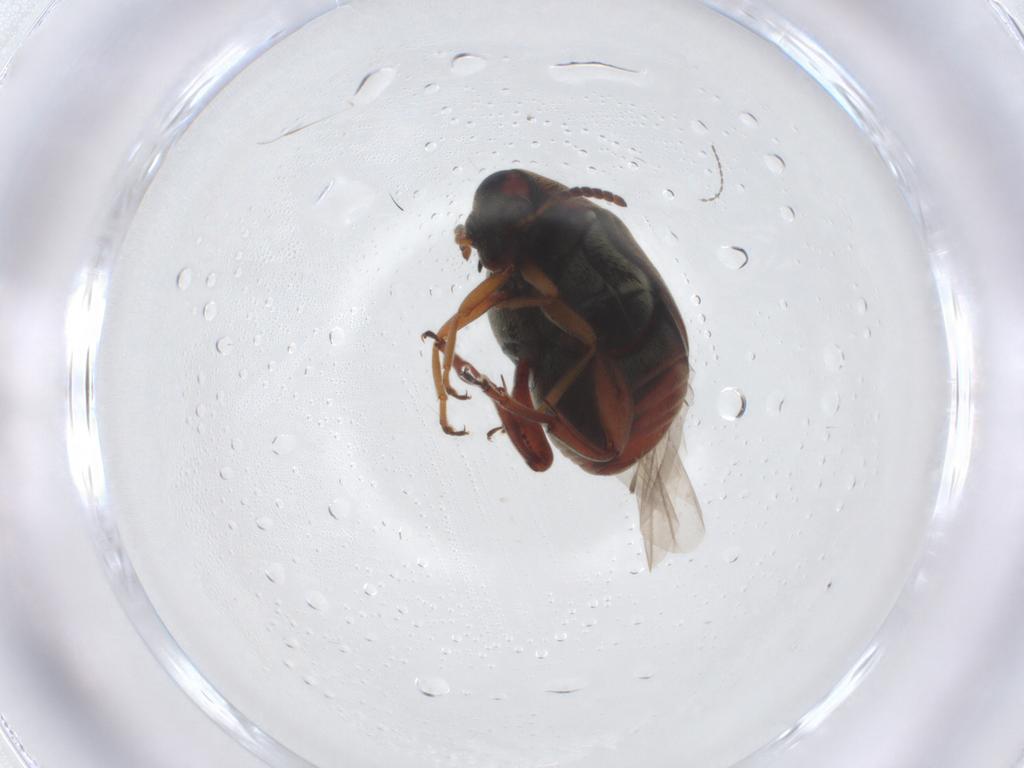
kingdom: Animalia
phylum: Arthropoda
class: Insecta
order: Coleoptera
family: Chrysomelidae
